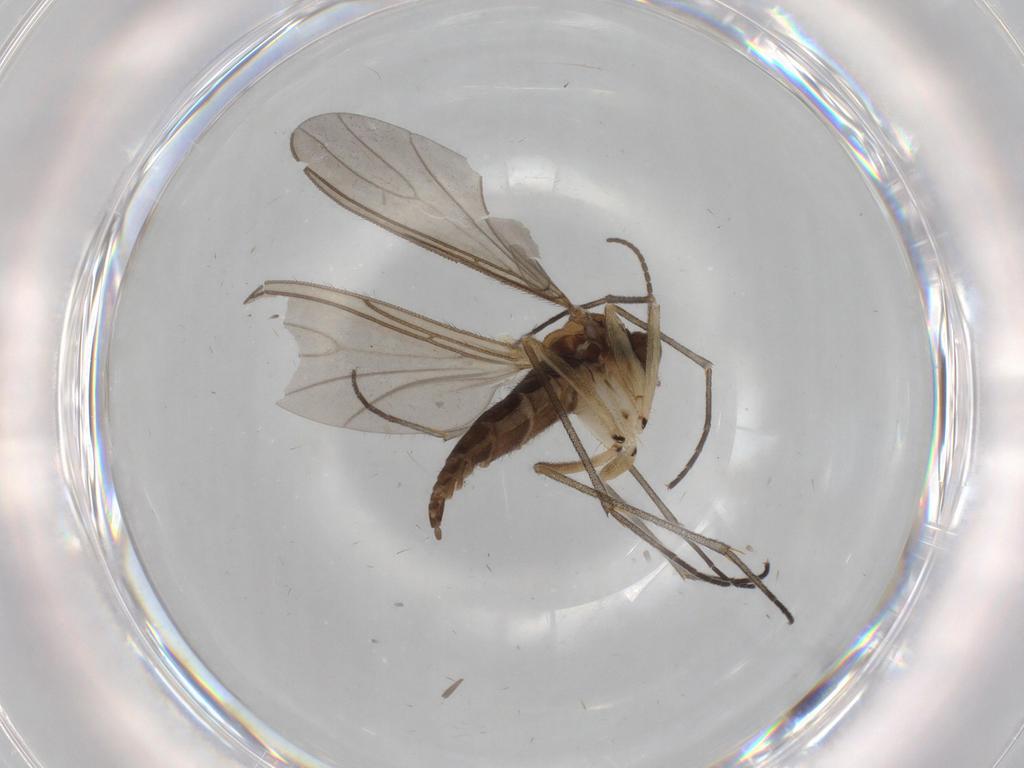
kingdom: Animalia
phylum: Arthropoda
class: Insecta
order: Diptera
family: Sciaridae
